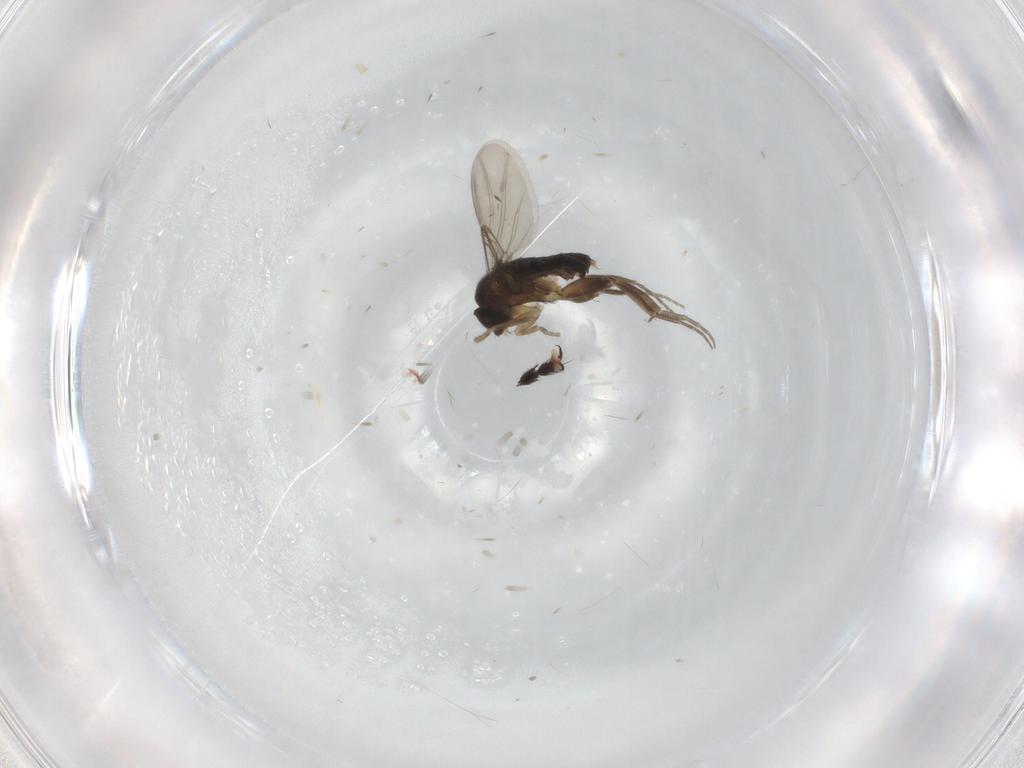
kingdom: Animalia
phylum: Arthropoda
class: Insecta
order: Diptera
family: Phoridae
